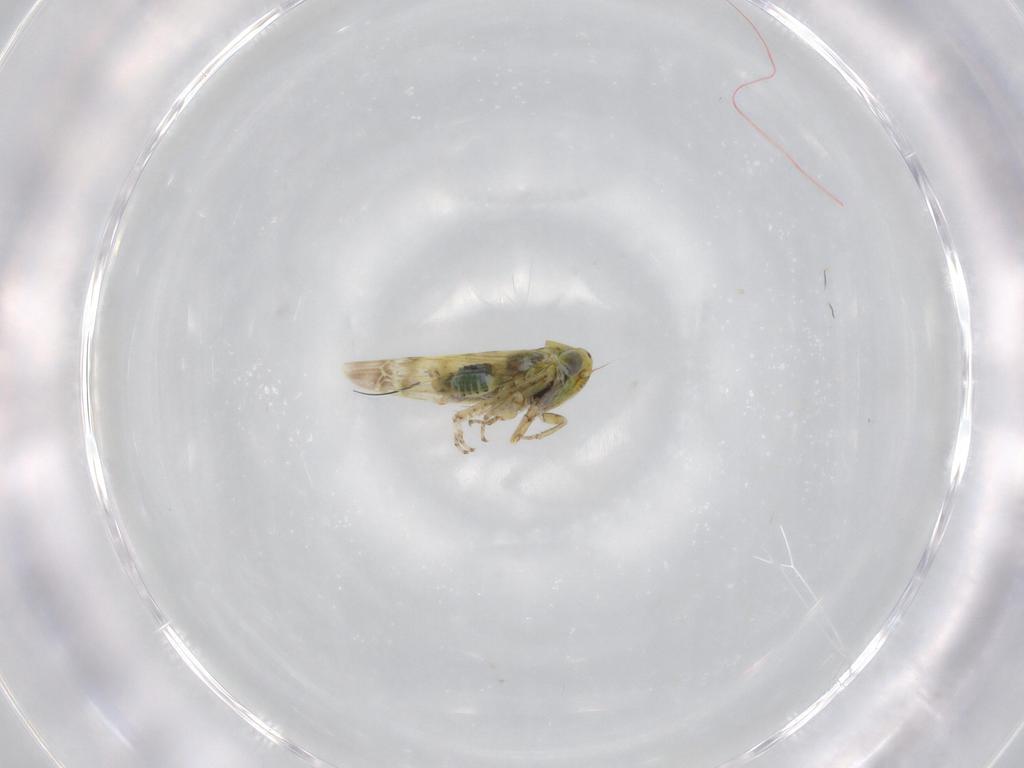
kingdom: Animalia
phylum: Arthropoda
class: Insecta
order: Hemiptera
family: Cicadellidae
